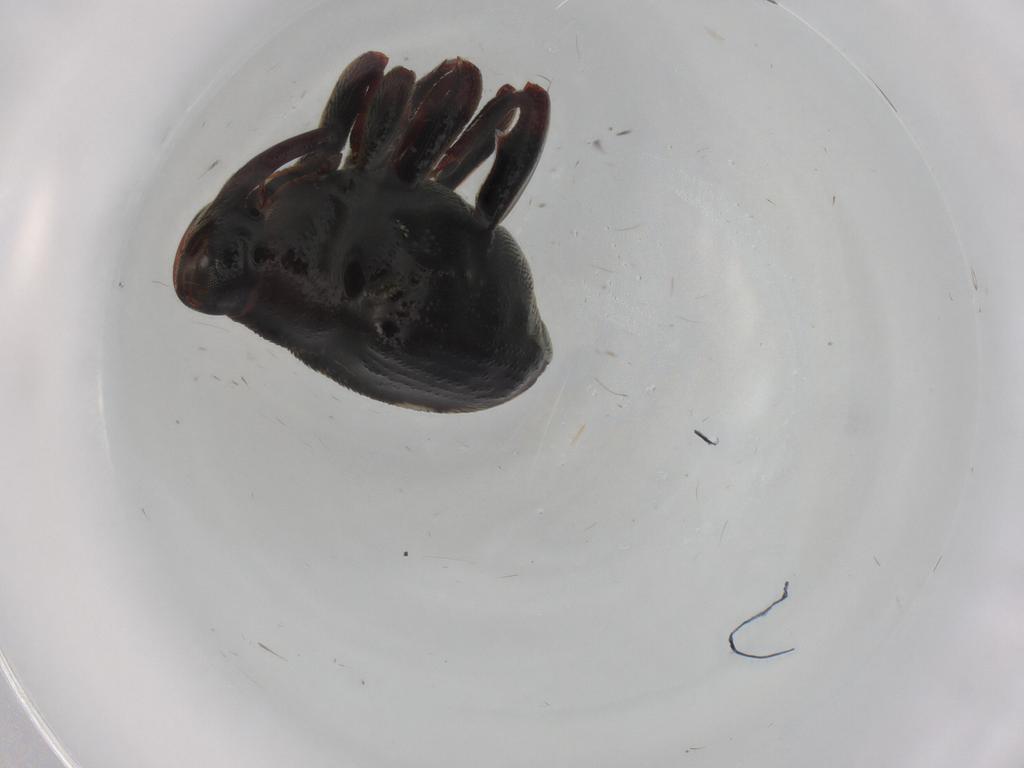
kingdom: Animalia
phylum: Arthropoda
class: Insecta
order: Coleoptera
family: Curculionidae
